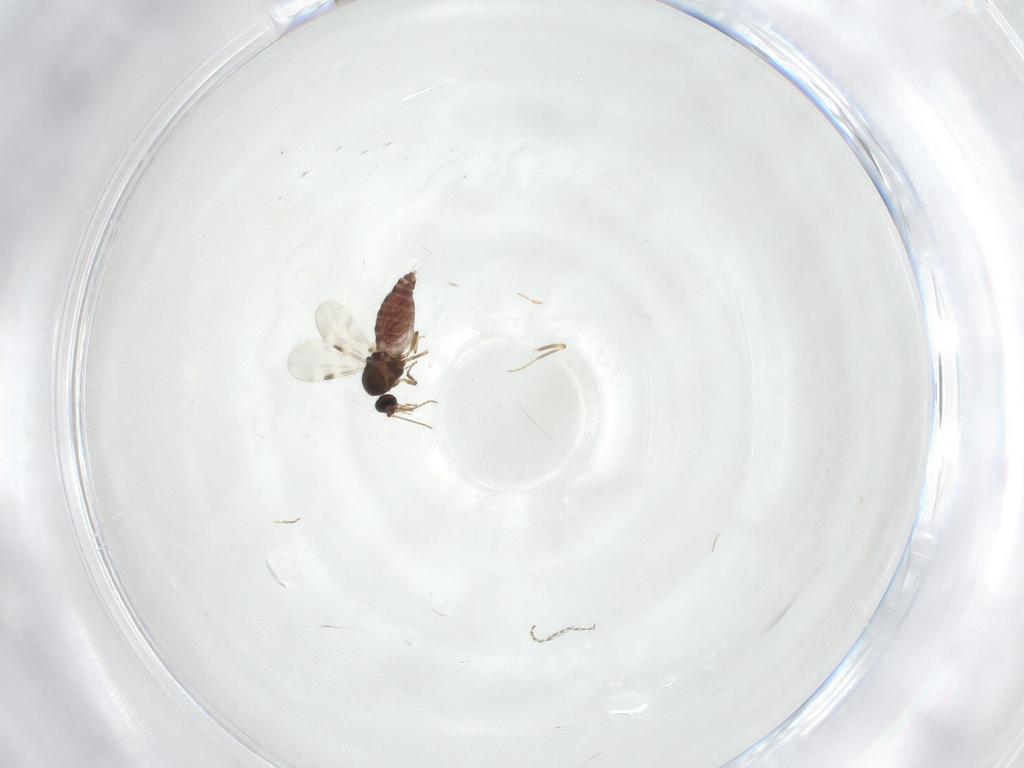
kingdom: Animalia
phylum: Arthropoda
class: Insecta
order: Diptera
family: Psychodidae
